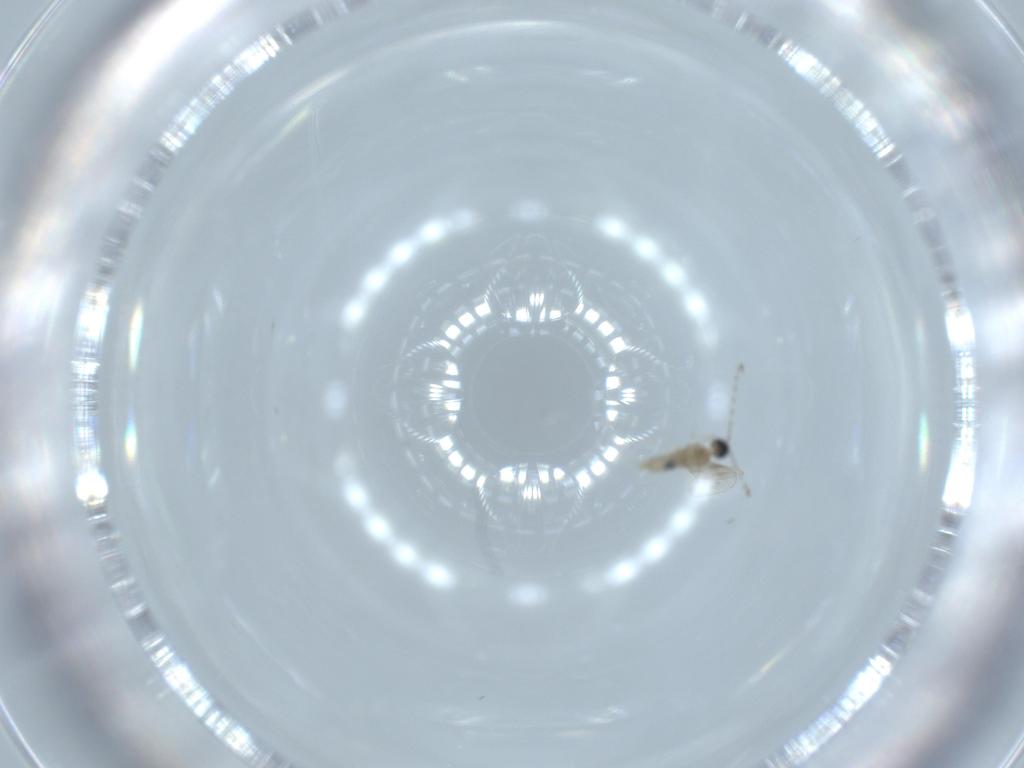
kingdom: Animalia
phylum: Arthropoda
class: Insecta
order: Diptera
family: Cecidomyiidae
